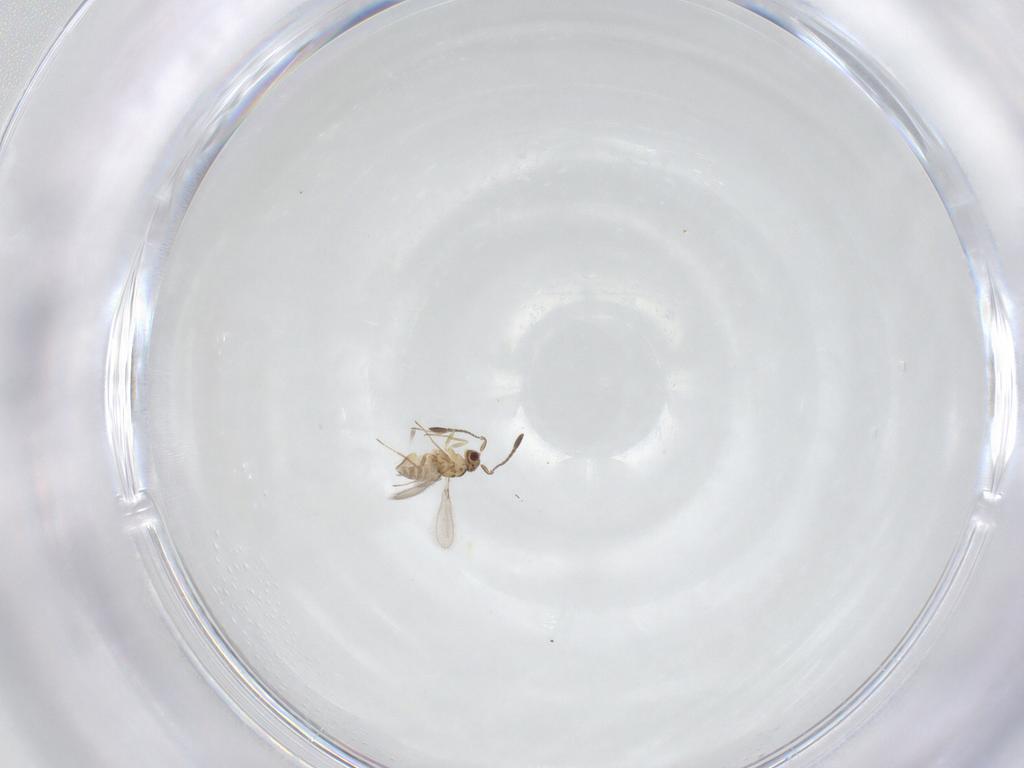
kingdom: Animalia
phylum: Arthropoda
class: Insecta
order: Hymenoptera
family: Mymaridae
